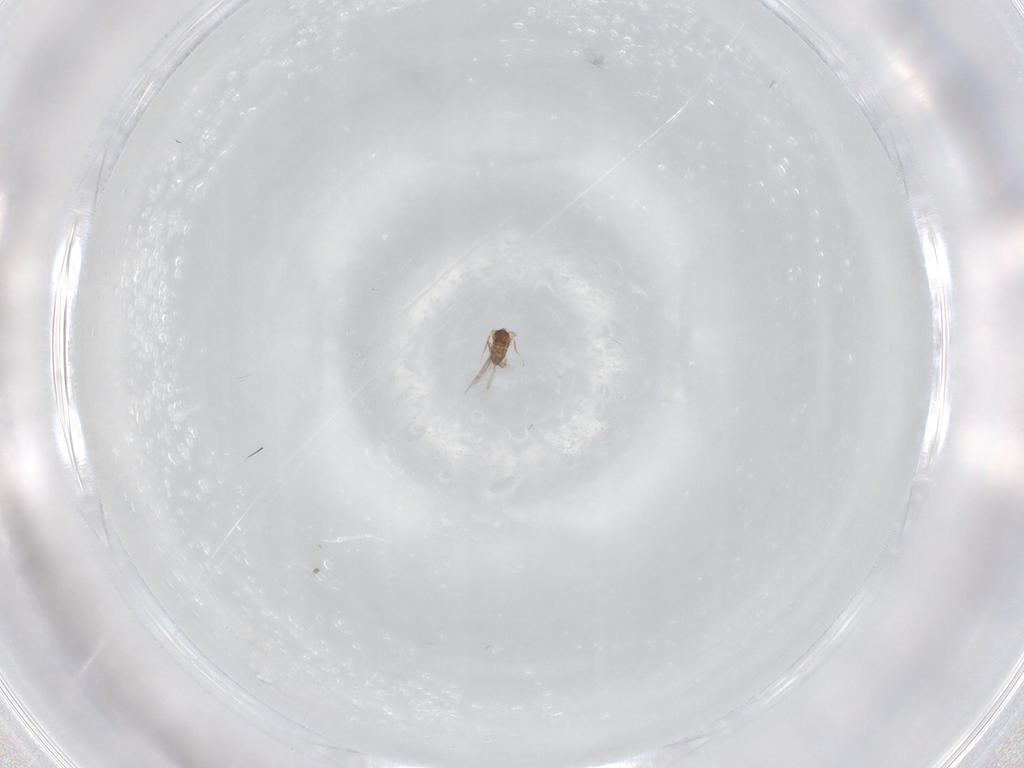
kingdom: Animalia
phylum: Arthropoda
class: Insecta
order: Hymenoptera
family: Mymaridae
